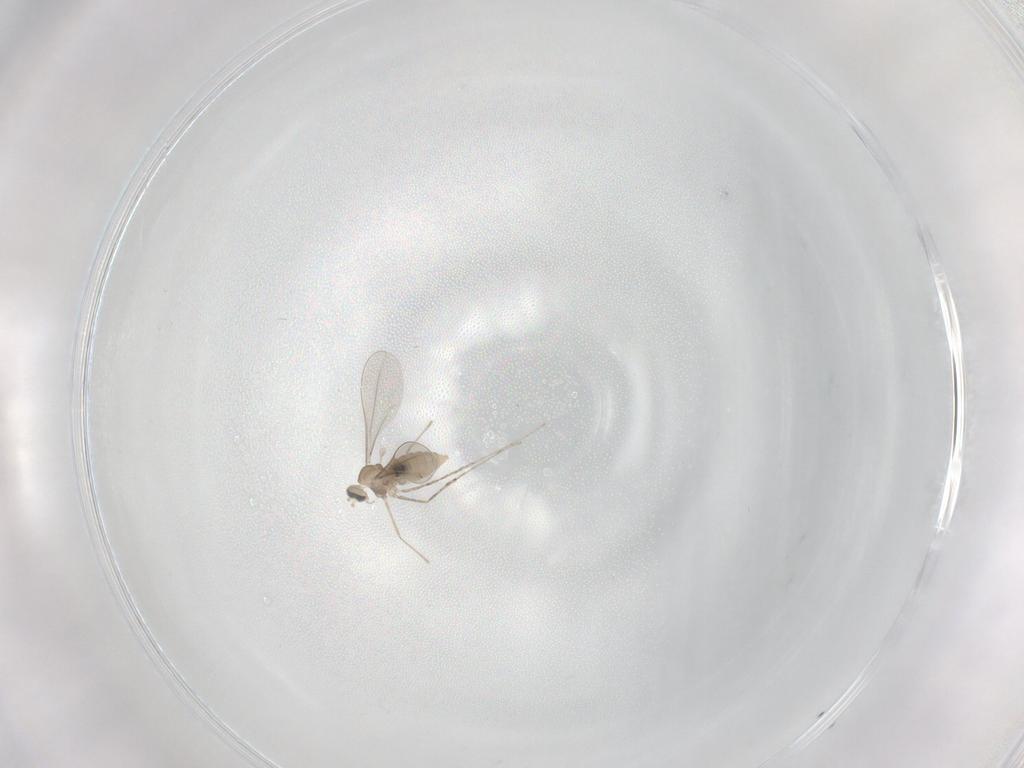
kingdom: Animalia
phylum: Arthropoda
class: Insecta
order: Diptera
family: Cecidomyiidae
